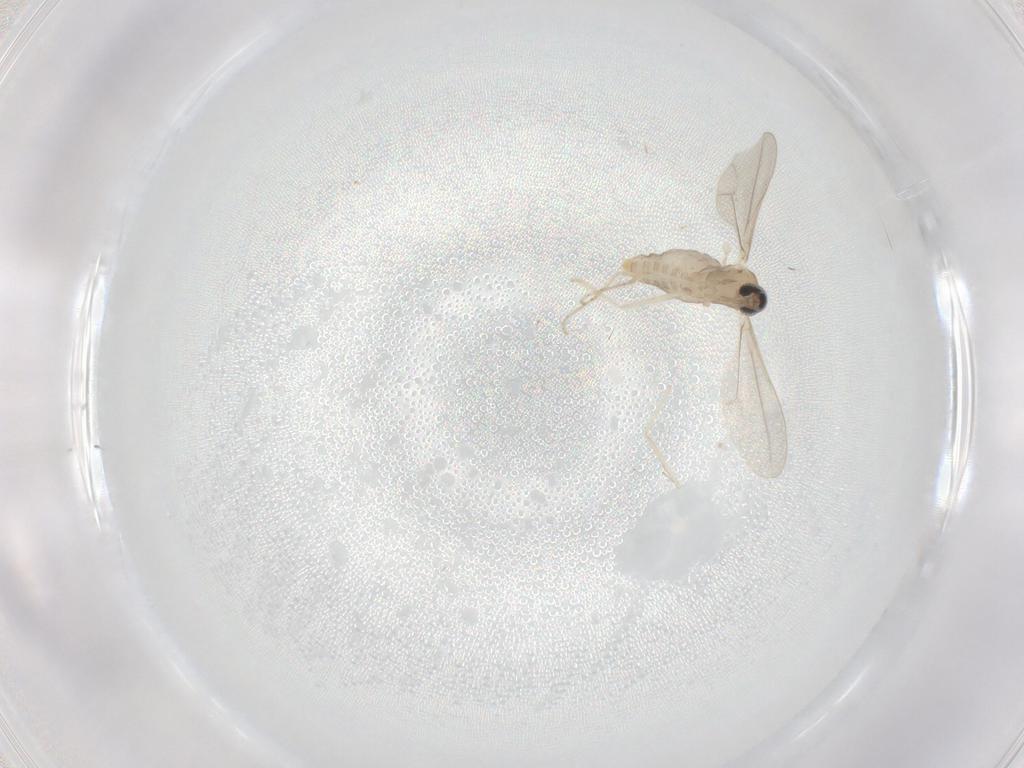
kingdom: Animalia
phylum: Arthropoda
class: Insecta
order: Diptera
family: Cecidomyiidae
